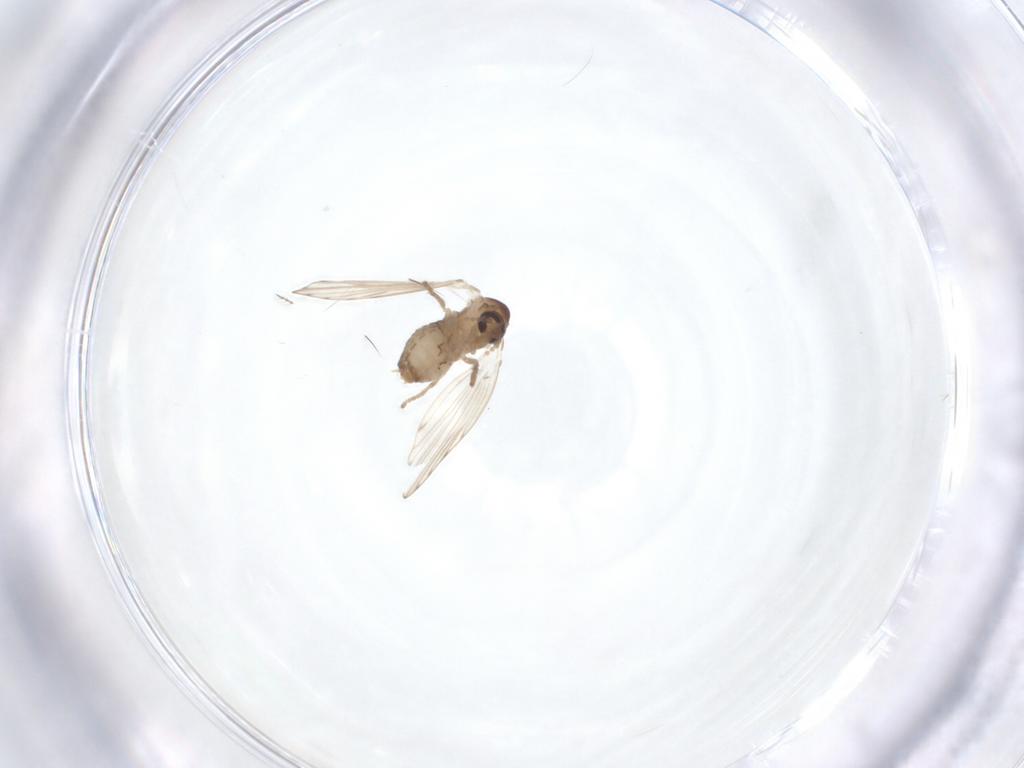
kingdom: Animalia
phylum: Arthropoda
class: Insecta
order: Diptera
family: Psychodidae
